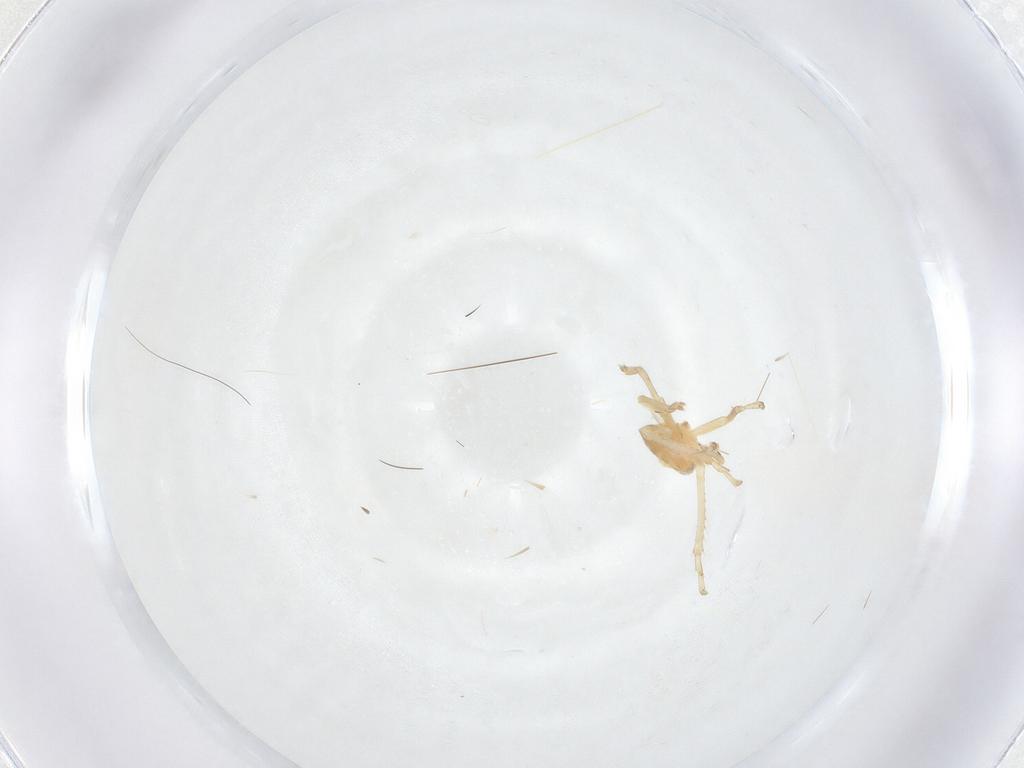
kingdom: Animalia
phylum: Arthropoda
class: Insecta
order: Hemiptera
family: Cicadellidae
